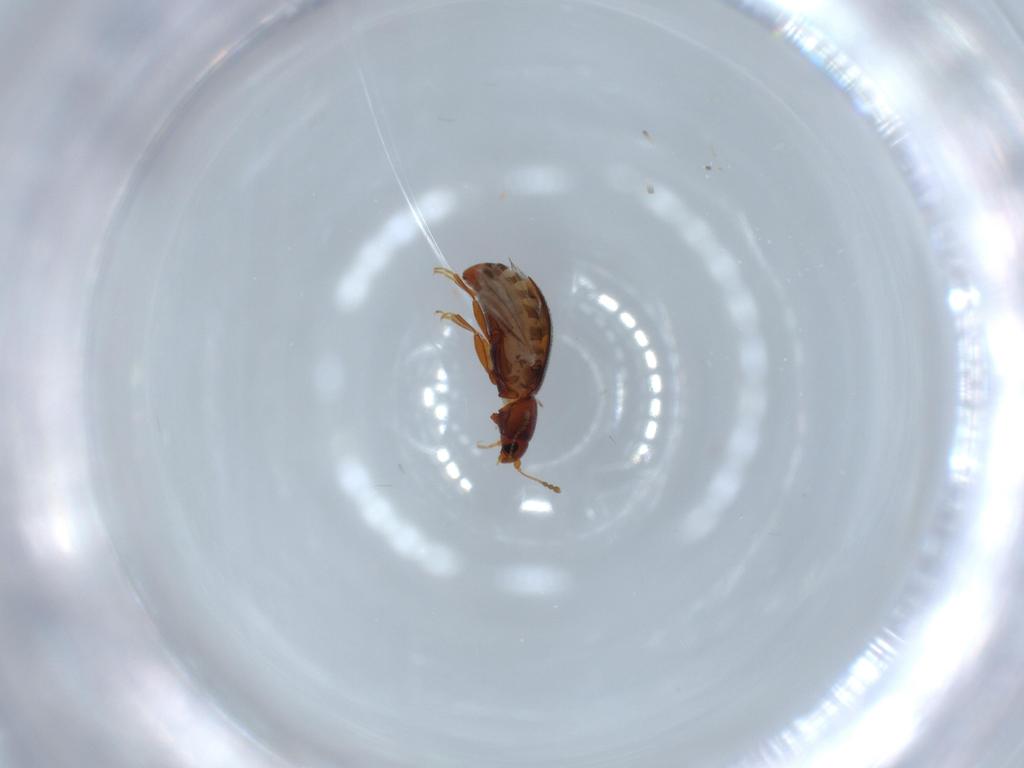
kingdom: Animalia
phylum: Arthropoda
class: Insecta
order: Coleoptera
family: Latridiidae
